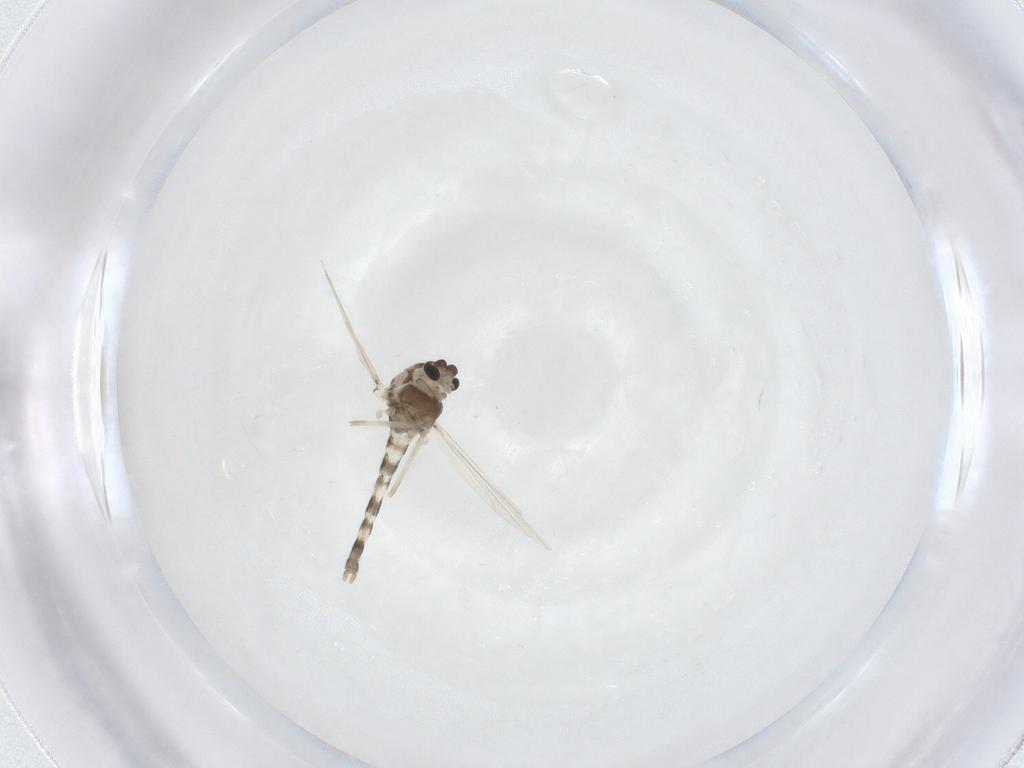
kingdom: Animalia
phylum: Arthropoda
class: Insecta
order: Diptera
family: Chironomidae
